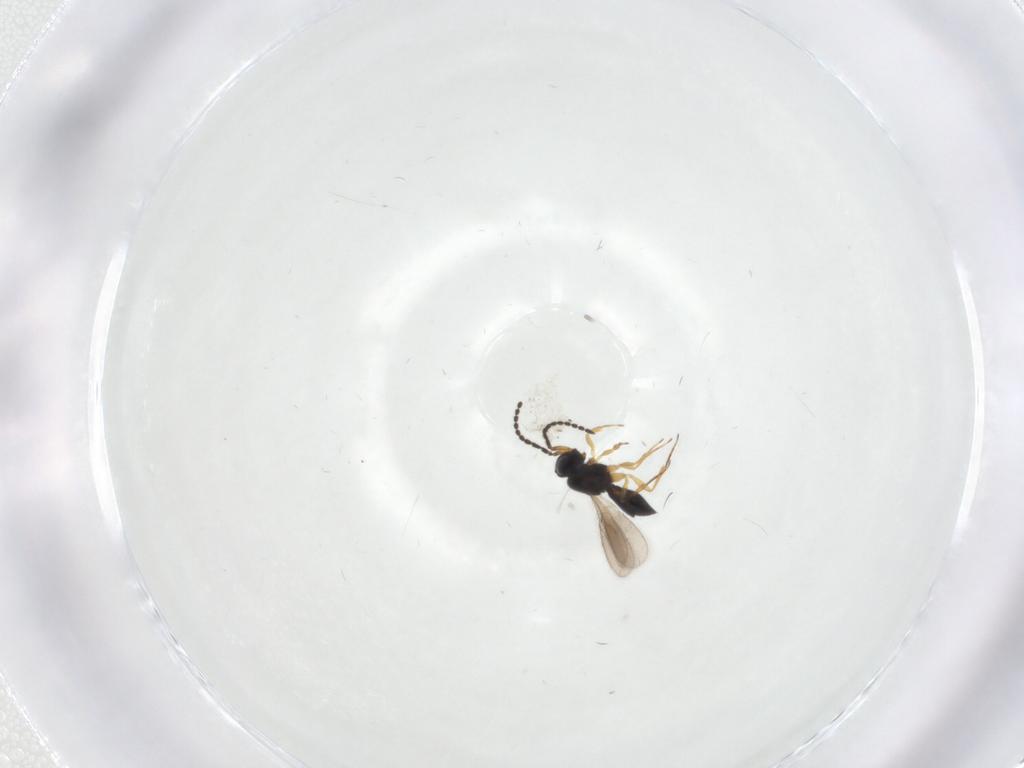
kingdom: Animalia
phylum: Arthropoda
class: Insecta
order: Hymenoptera
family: Scelionidae
